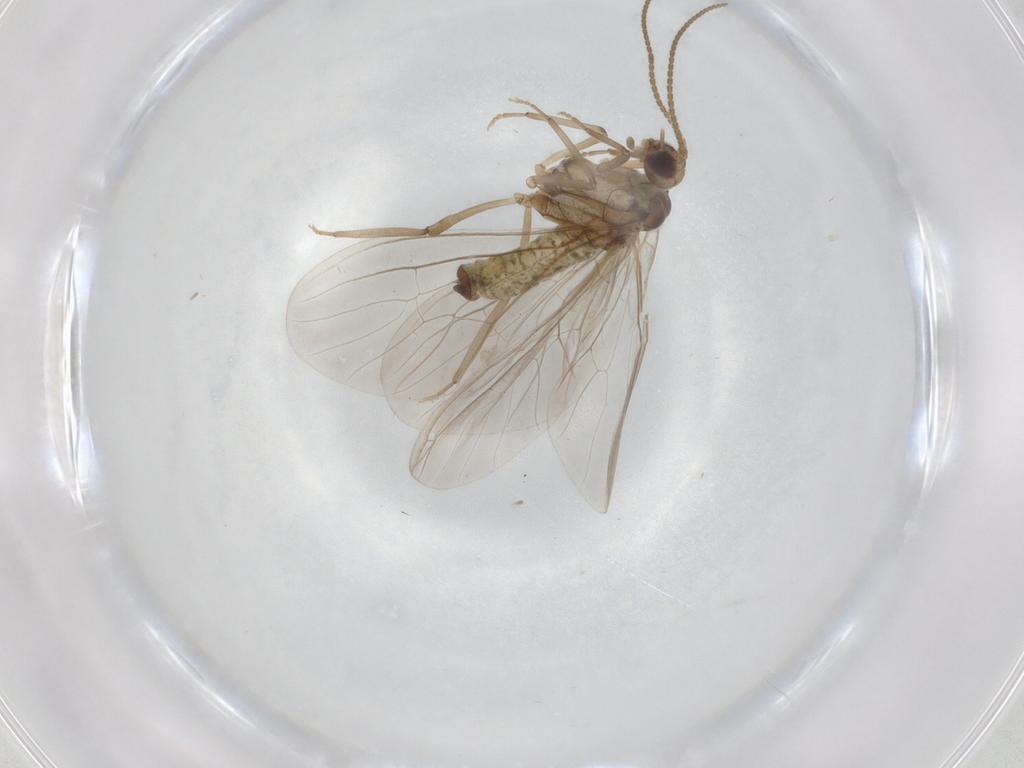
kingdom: Animalia
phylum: Arthropoda
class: Insecta
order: Neuroptera
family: Coniopterygidae
